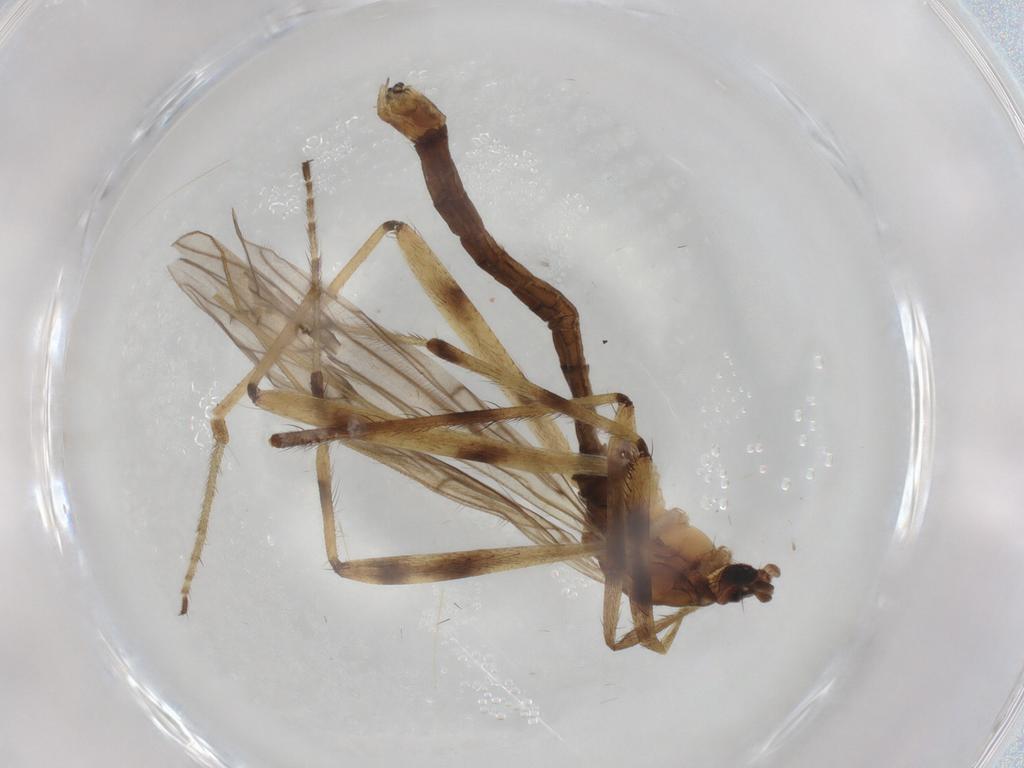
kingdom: Animalia
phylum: Arthropoda
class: Insecta
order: Diptera
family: Limoniidae
